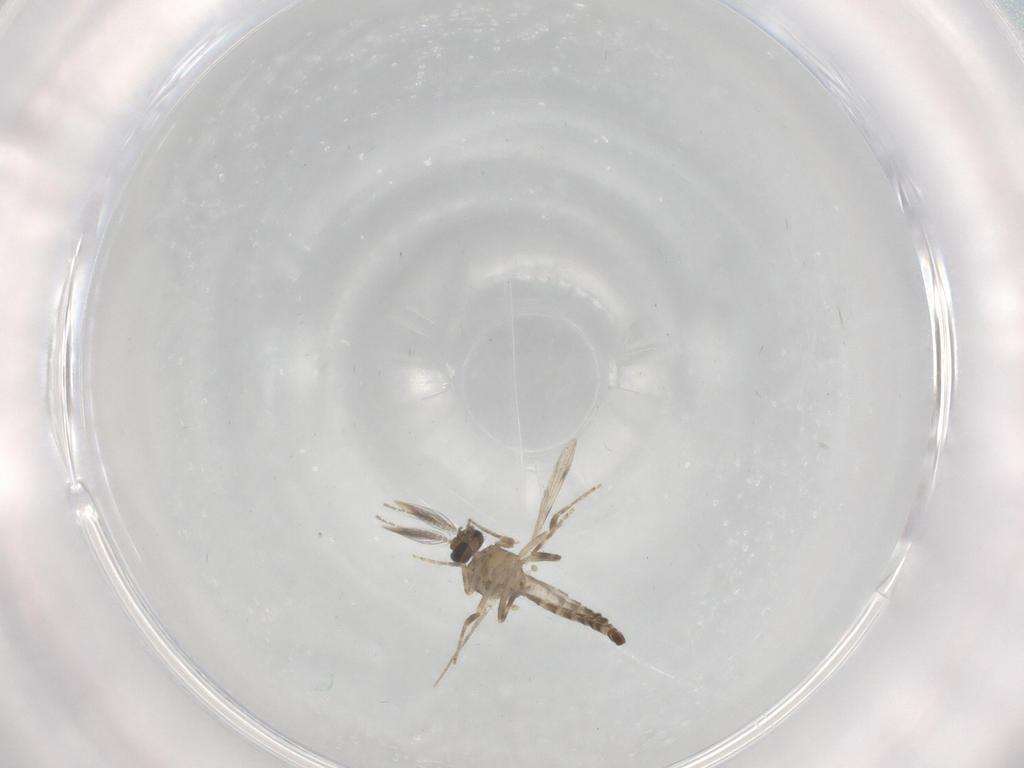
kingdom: Animalia
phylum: Arthropoda
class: Insecta
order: Diptera
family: Ceratopogonidae
